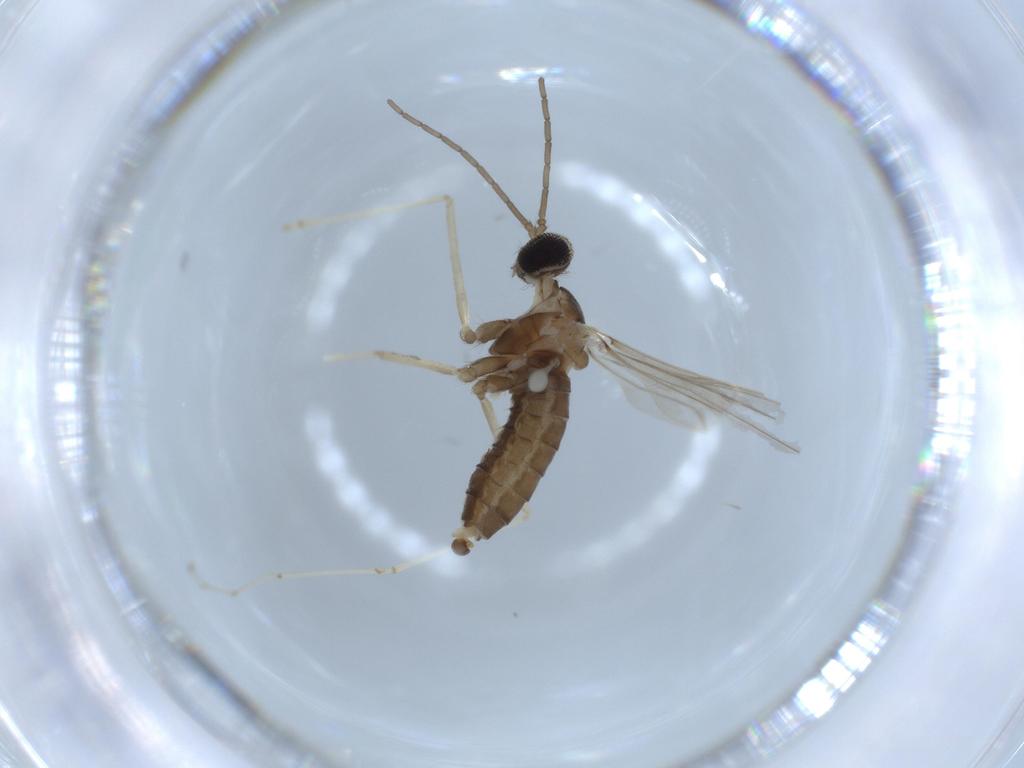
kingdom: Animalia
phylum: Arthropoda
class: Insecta
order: Diptera
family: Cecidomyiidae
